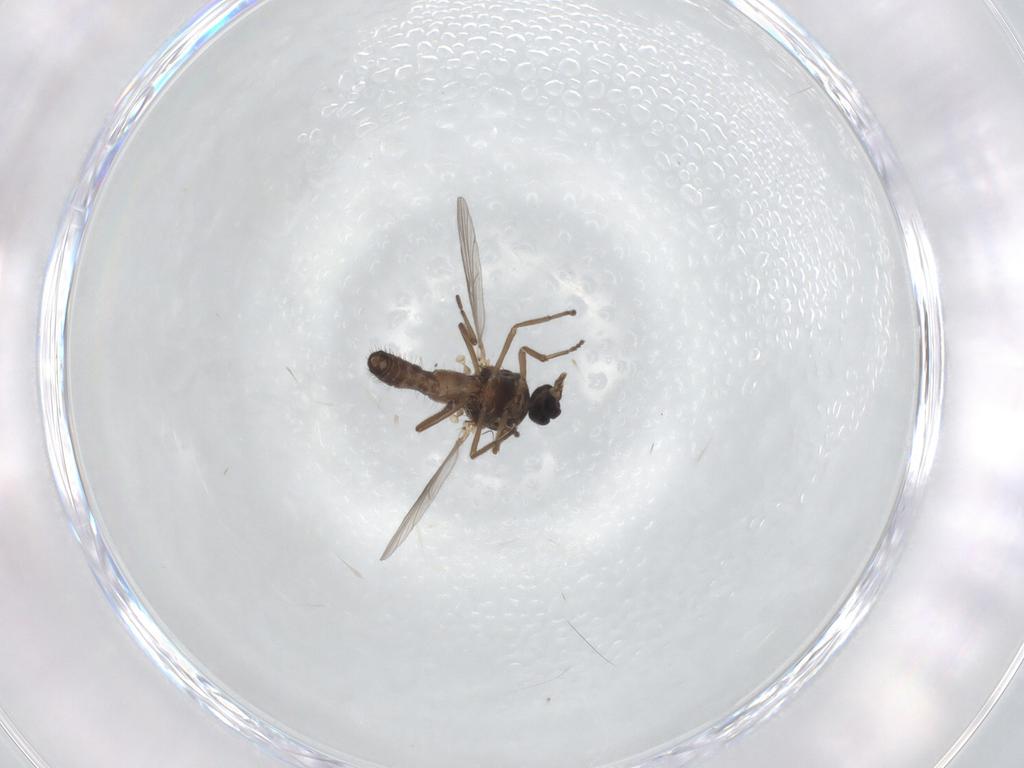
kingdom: Animalia
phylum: Arthropoda
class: Insecta
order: Diptera
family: Ceratopogonidae
